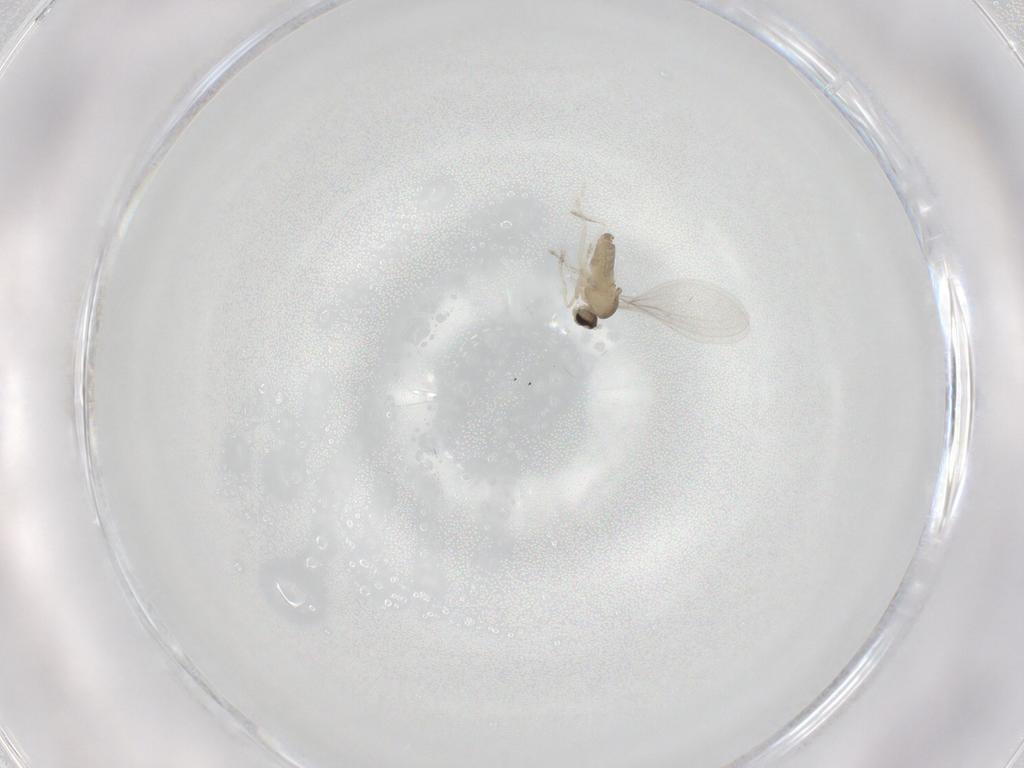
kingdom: Animalia
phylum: Arthropoda
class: Insecta
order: Diptera
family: Cecidomyiidae
